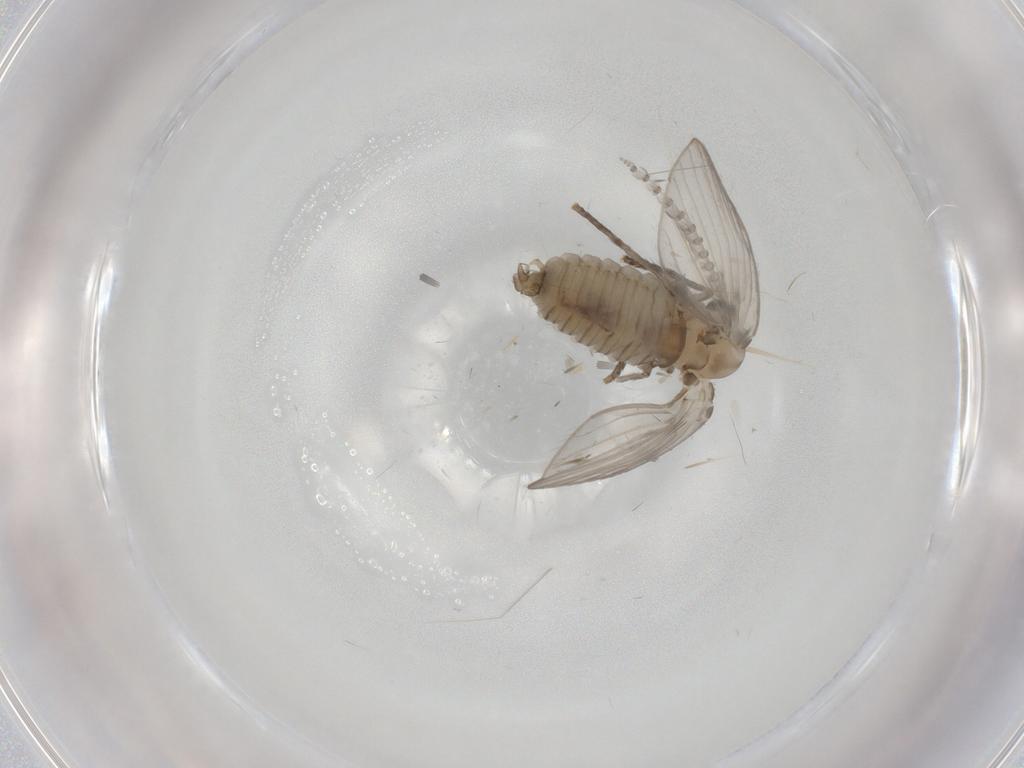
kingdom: Animalia
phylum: Arthropoda
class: Insecta
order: Diptera
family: Psychodidae
